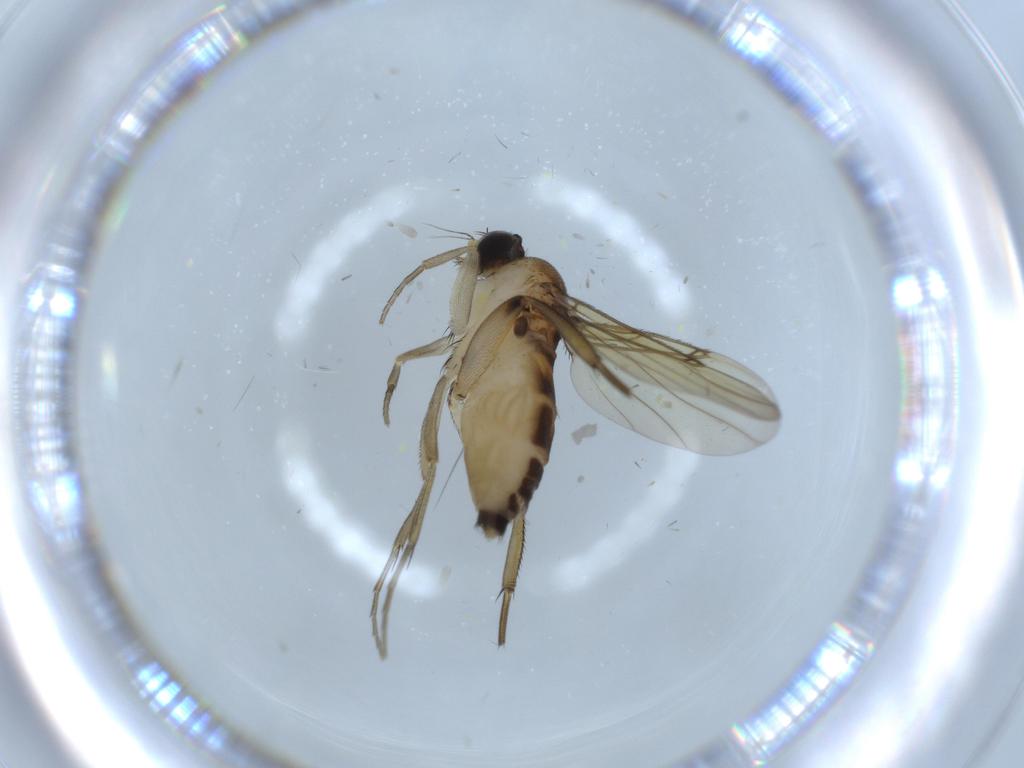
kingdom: Animalia
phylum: Arthropoda
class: Insecta
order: Diptera
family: Phoridae
